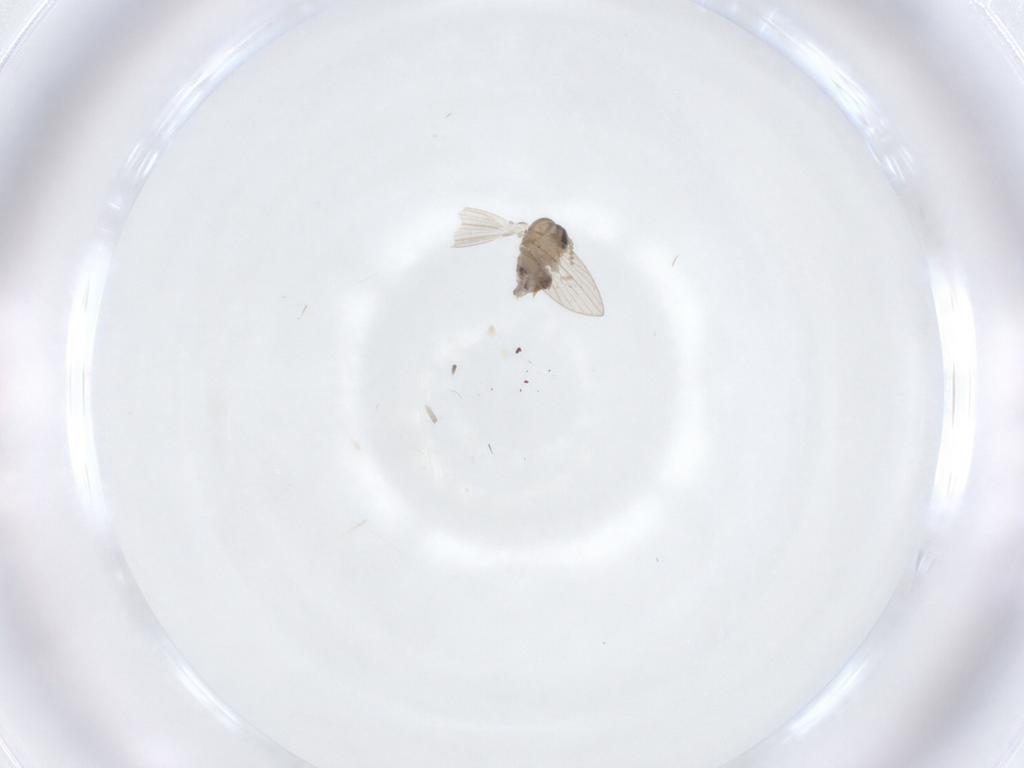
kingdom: Animalia
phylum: Arthropoda
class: Insecta
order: Diptera
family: Psychodidae
